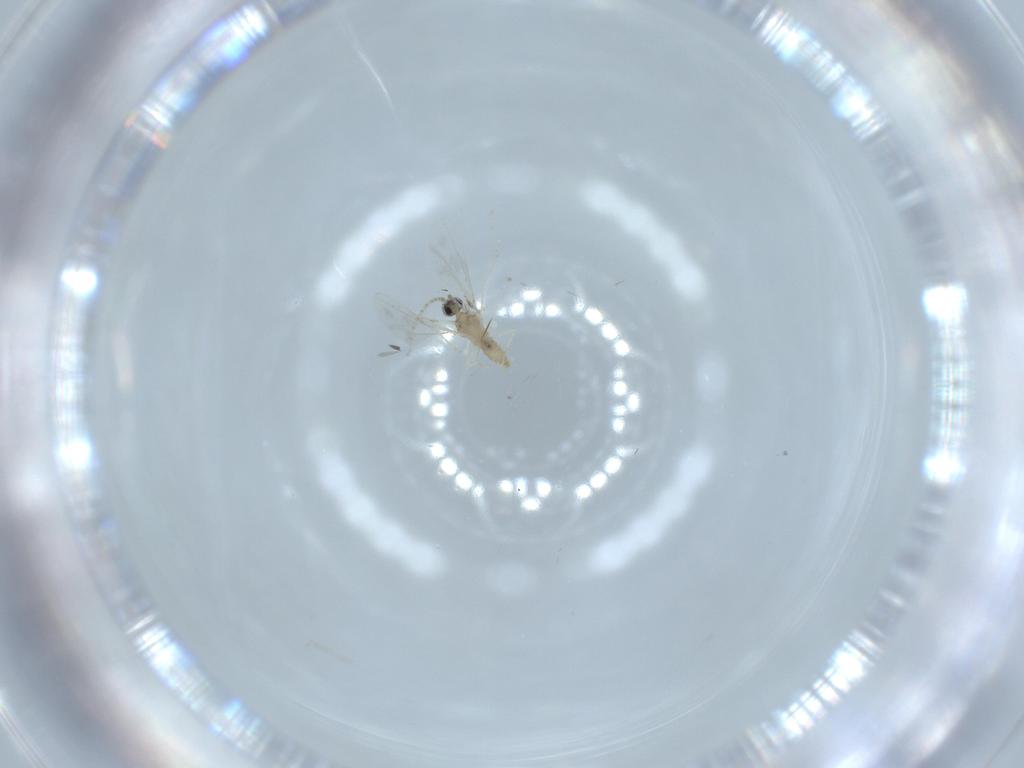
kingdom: Animalia
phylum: Arthropoda
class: Insecta
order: Diptera
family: Cecidomyiidae
